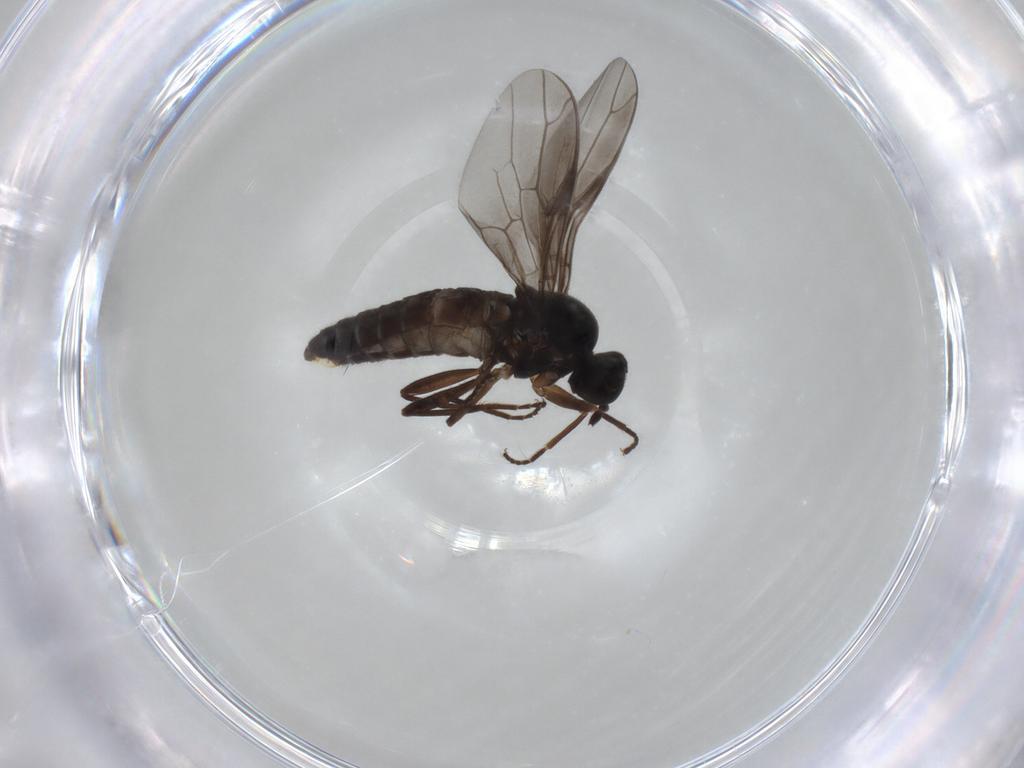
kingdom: Animalia
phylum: Arthropoda
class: Insecta
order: Diptera
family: Scenopinidae
